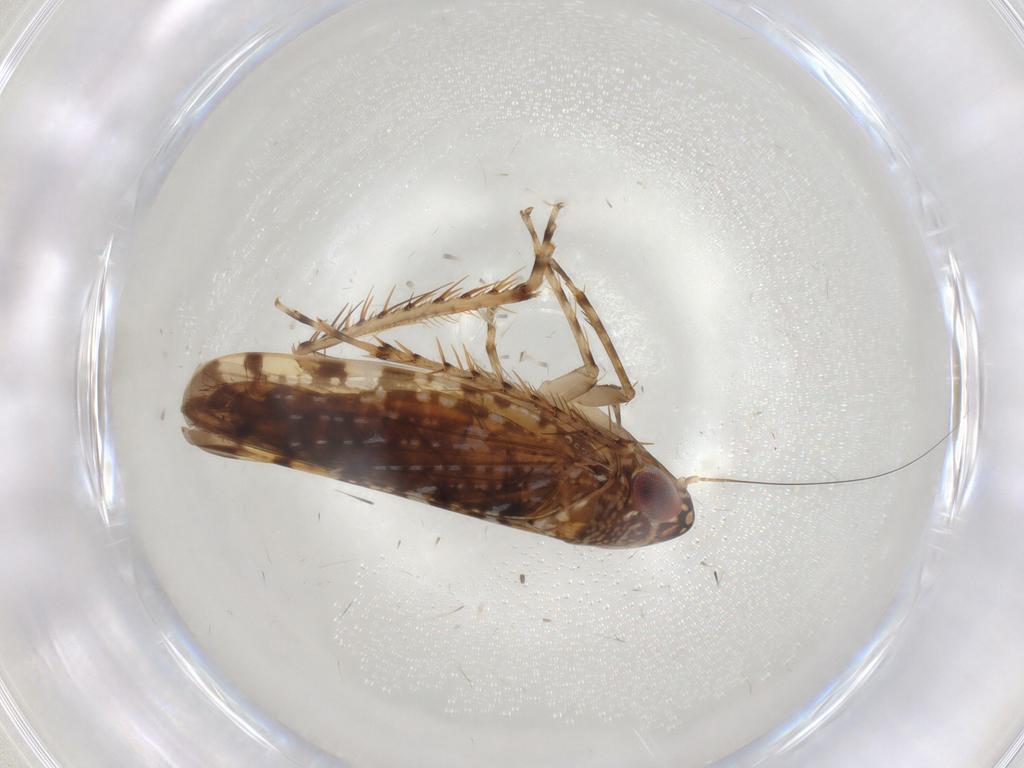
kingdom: Animalia
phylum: Arthropoda
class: Insecta
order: Hemiptera
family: Cicadellidae
